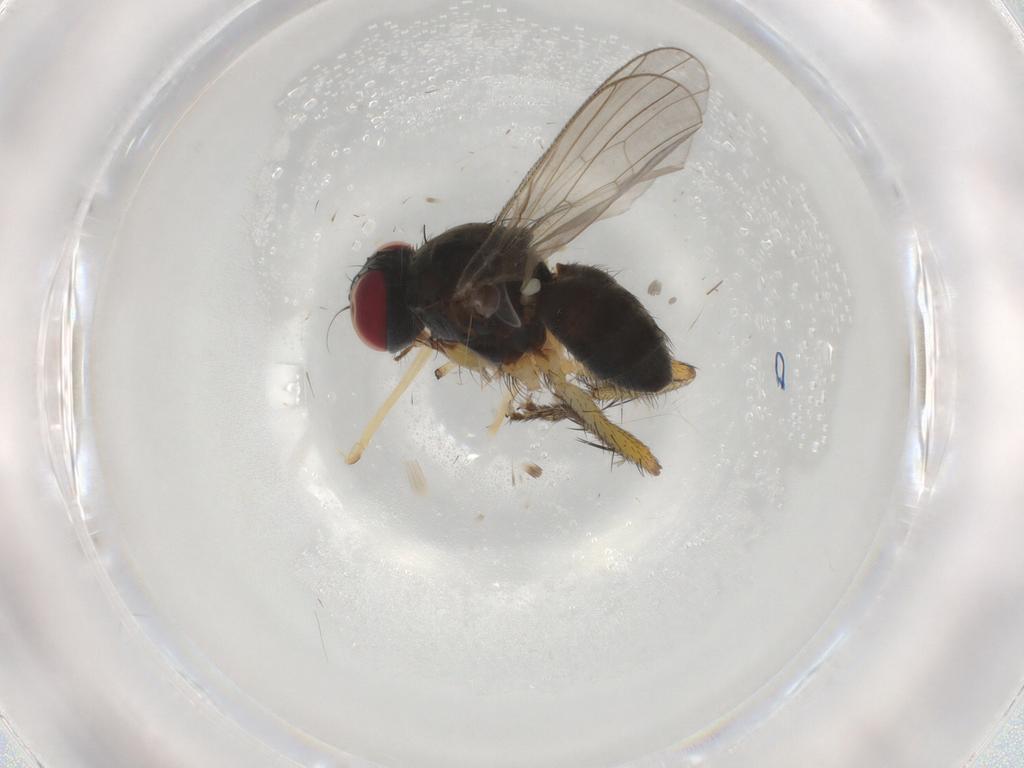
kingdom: Animalia
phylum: Arthropoda
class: Insecta
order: Diptera
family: Muscidae
